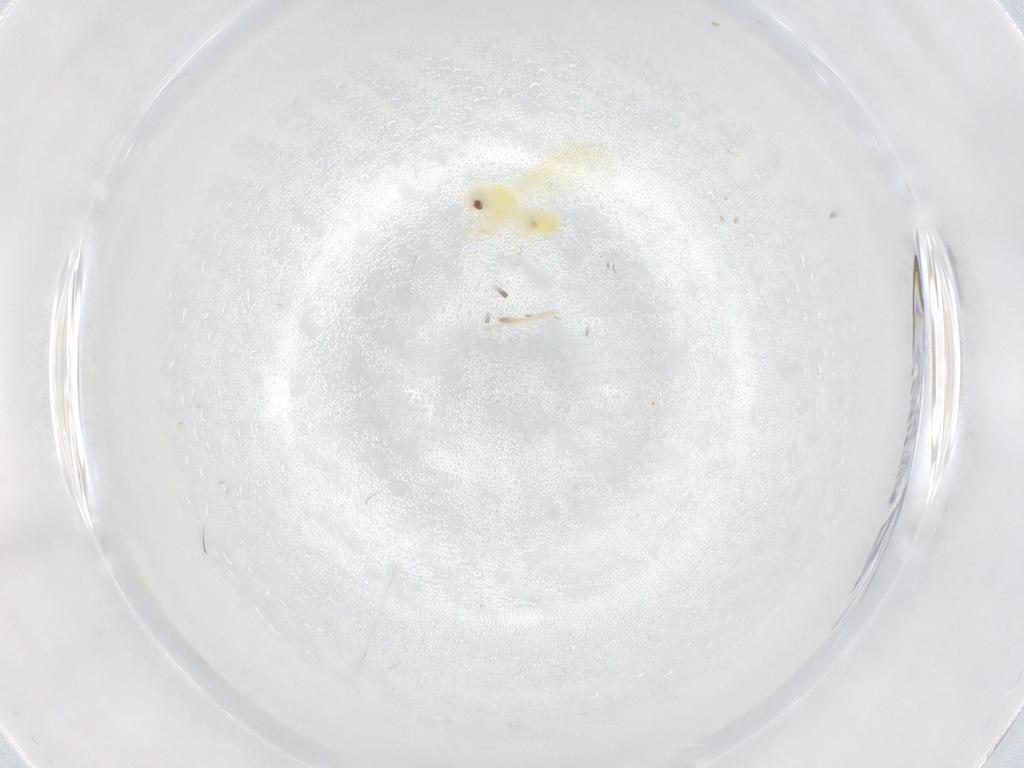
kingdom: Animalia
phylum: Arthropoda
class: Insecta
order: Hemiptera
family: Aleyrodidae
